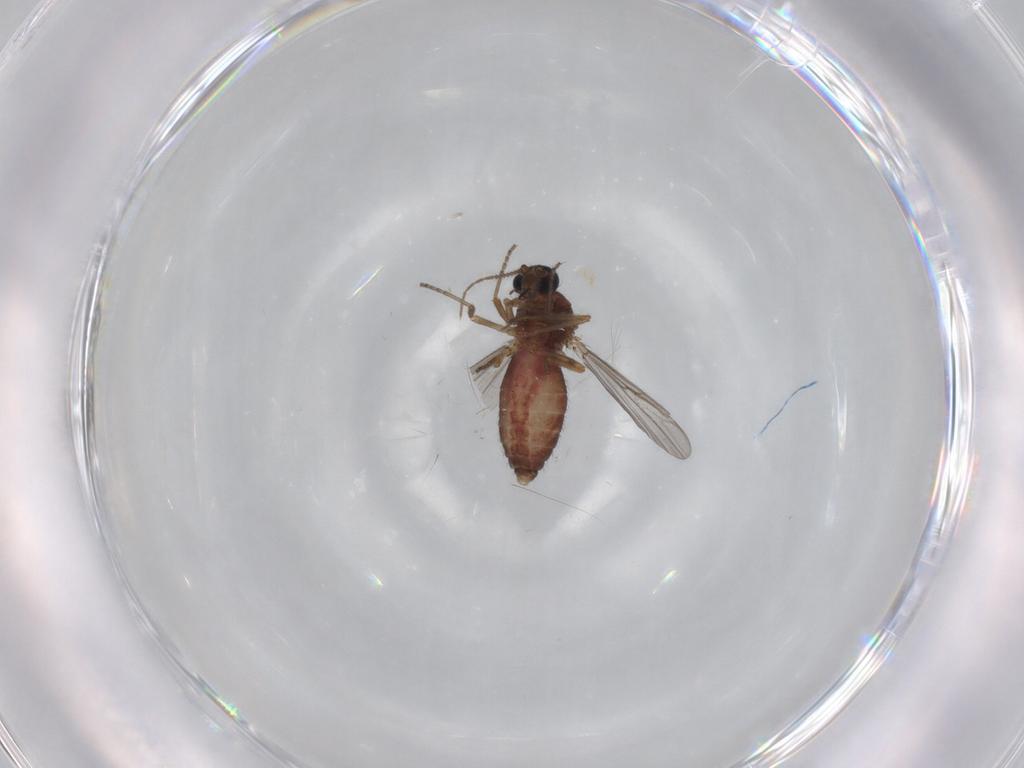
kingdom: Animalia
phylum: Arthropoda
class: Insecta
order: Diptera
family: Ceratopogonidae
